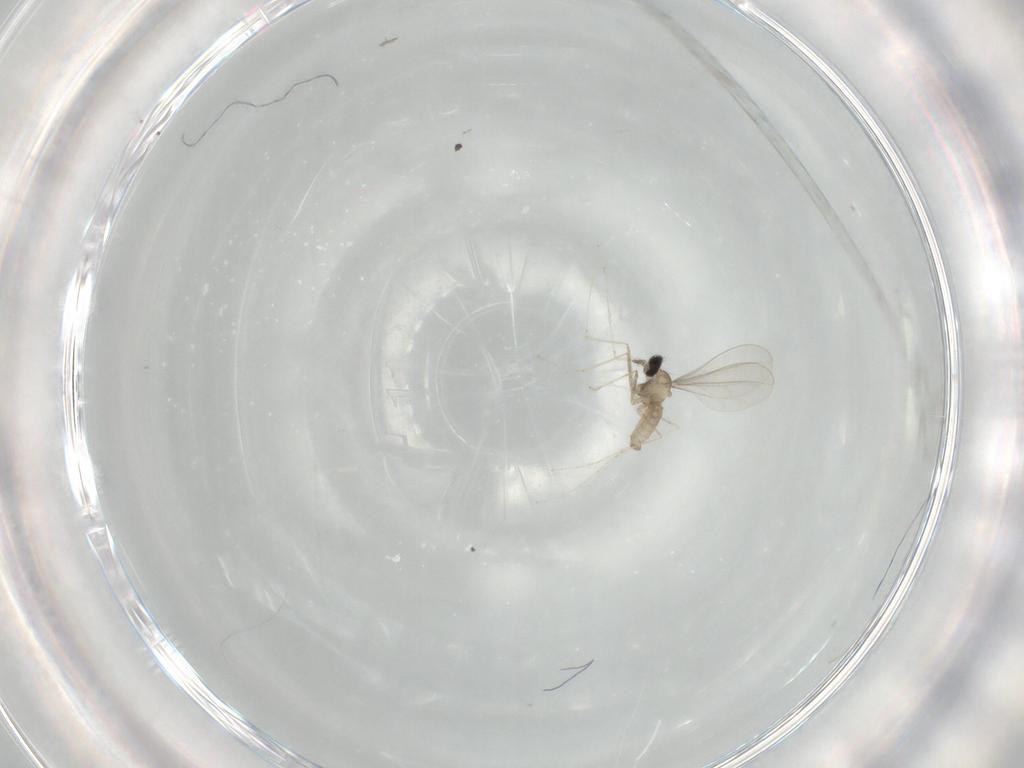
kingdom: Animalia
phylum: Arthropoda
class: Insecta
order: Diptera
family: Cecidomyiidae
